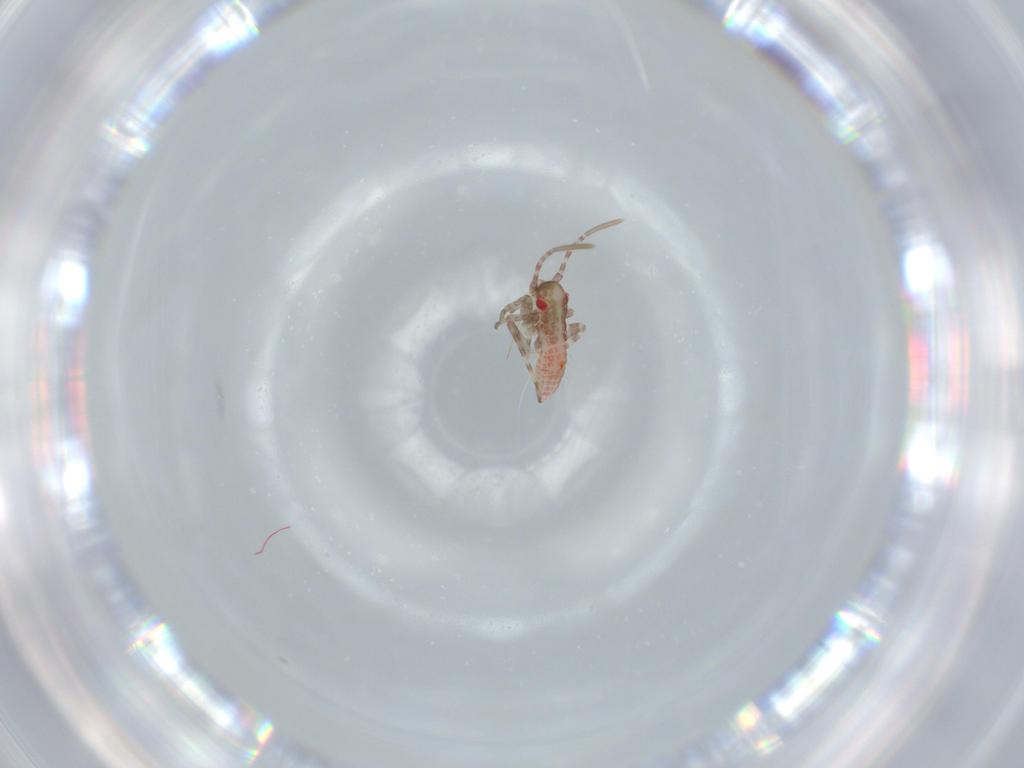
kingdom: Animalia
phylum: Arthropoda
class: Insecta
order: Hemiptera
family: Miridae
